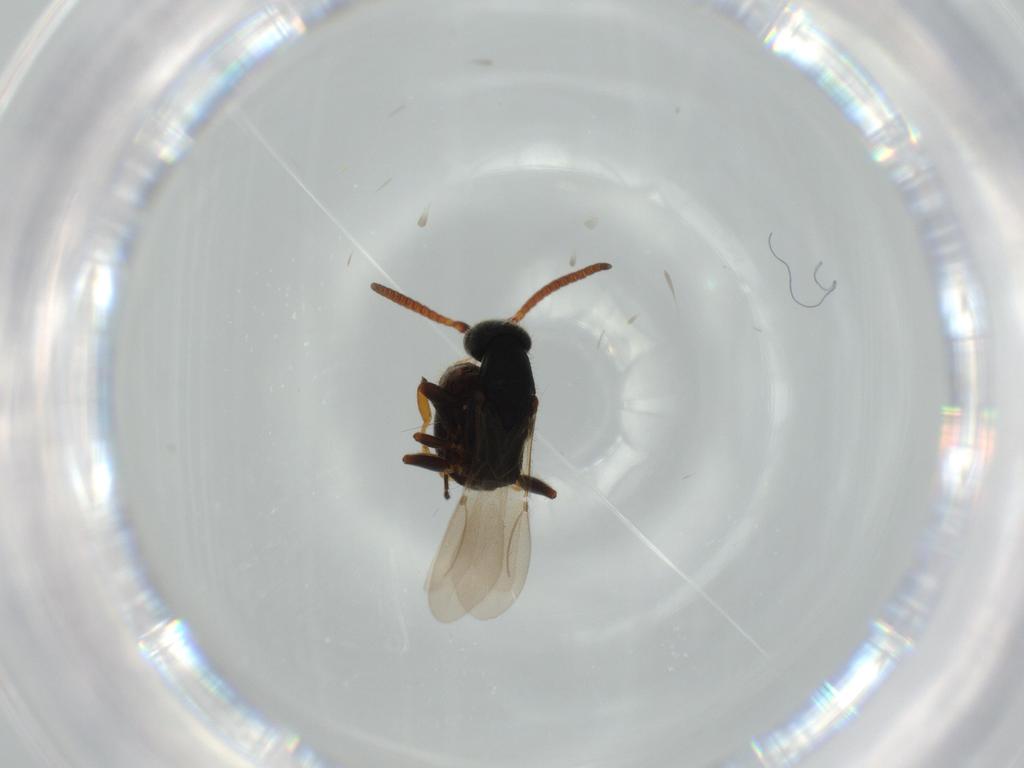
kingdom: Animalia
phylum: Arthropoda
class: Insecta
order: Hymenoptera
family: Bethylidae
